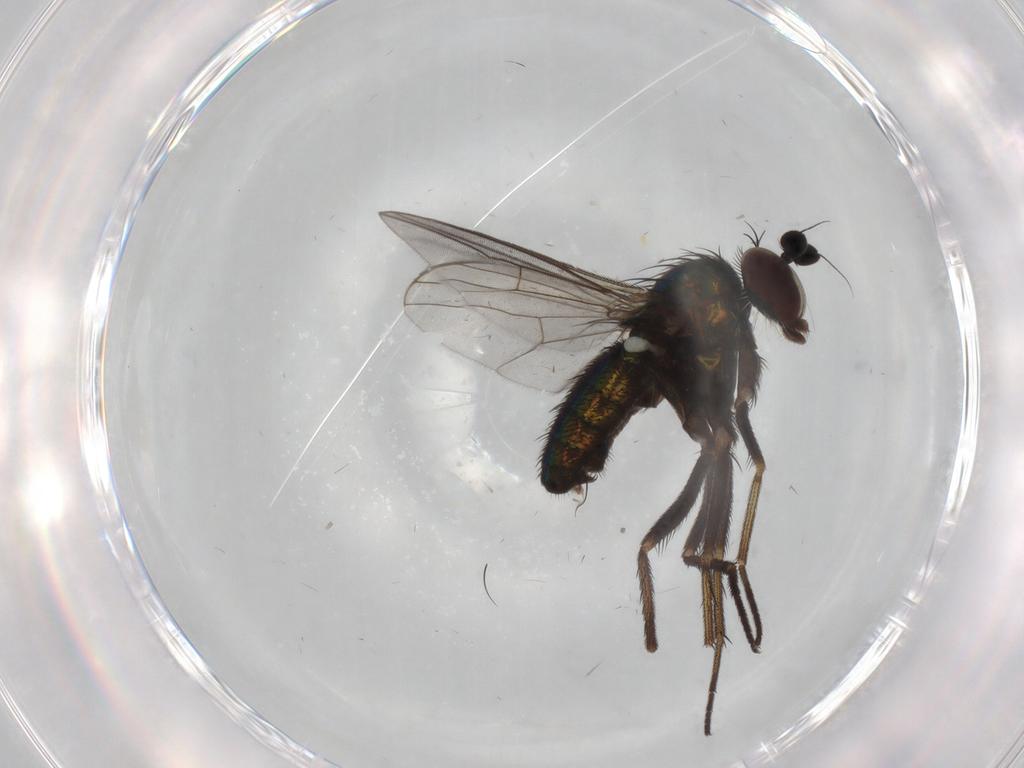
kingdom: Animalia
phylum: Arthropoda
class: Insecta
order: Diptera
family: Dolichopodidae
